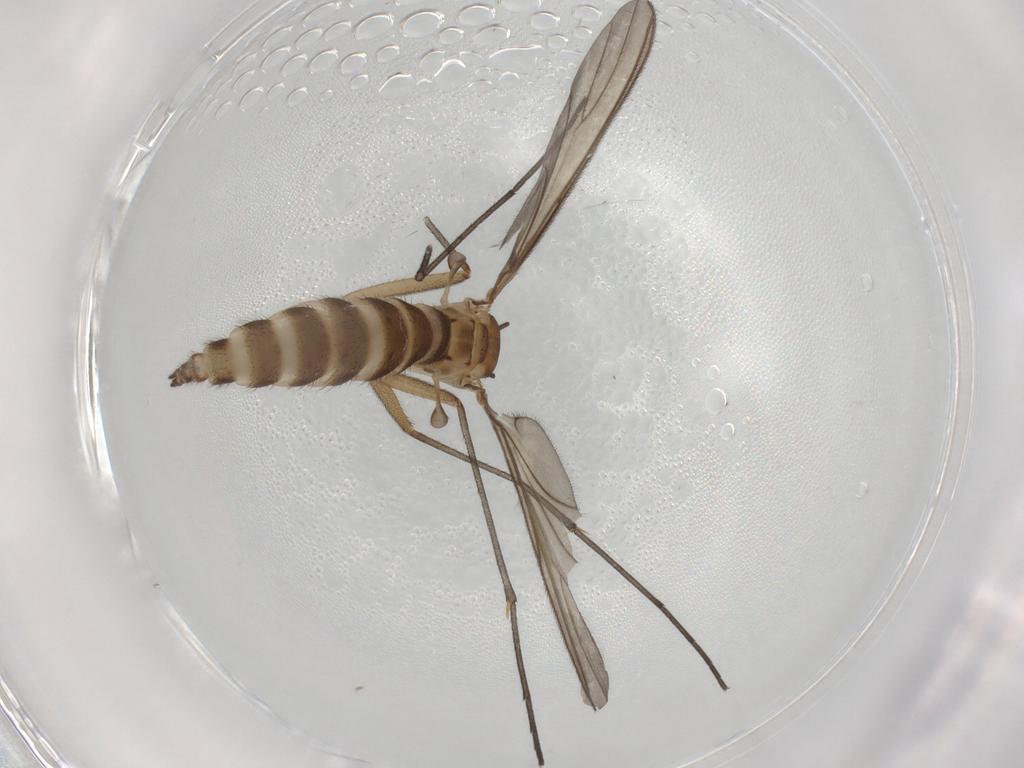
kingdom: Animalia
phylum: Arthropoda
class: Insecta
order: Diptera
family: Sciaridae
